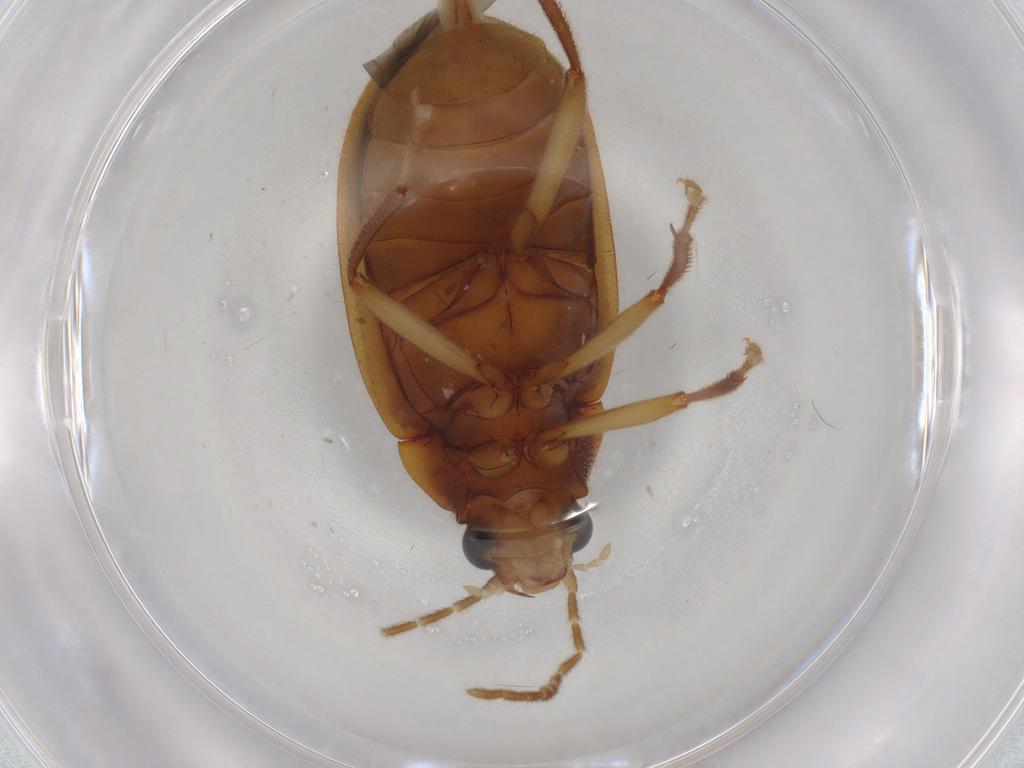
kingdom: Animalia
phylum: Arthropoda
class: Insecta
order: Coleoptera
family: Ptilodactylidae
